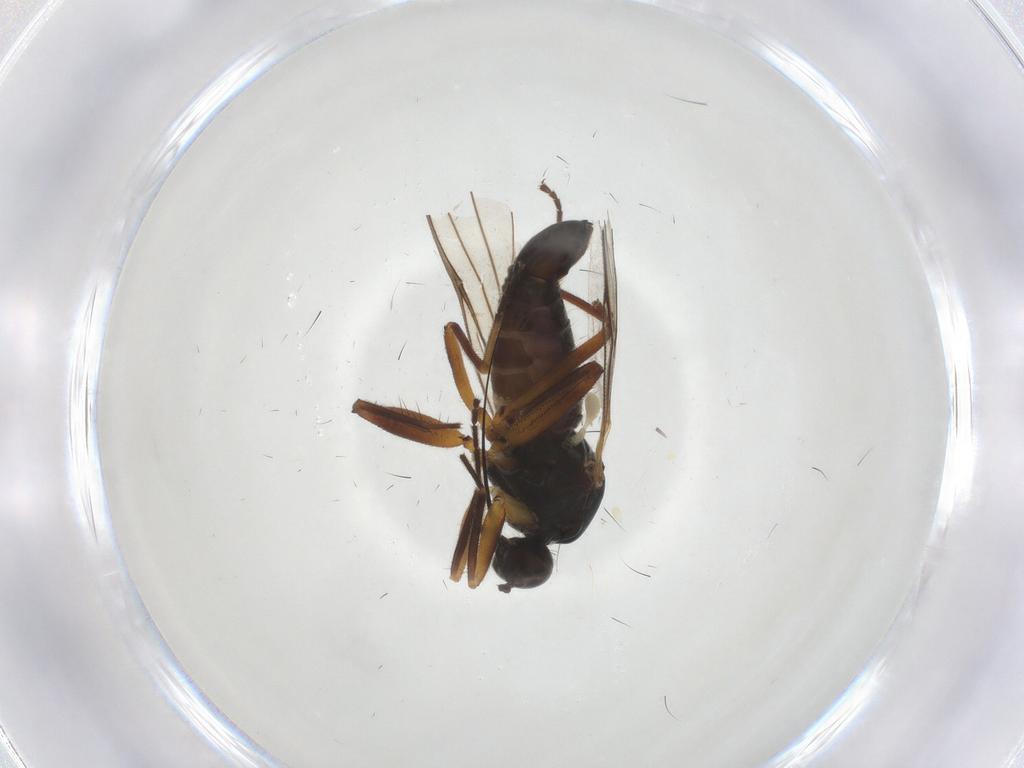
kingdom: Animalia
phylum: Arthropoda
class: Insecta
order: Diptera
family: Hybotidae
